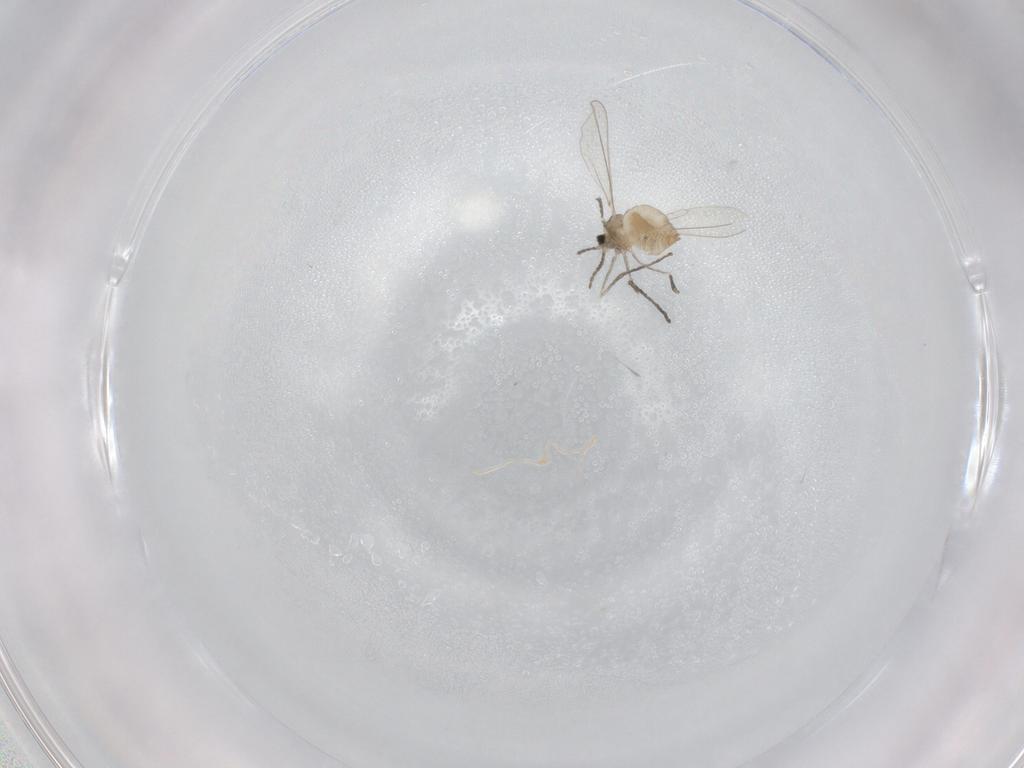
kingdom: Animalia
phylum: Arthropoda
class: Insecta
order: Diptera
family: Cecidomyiidae
